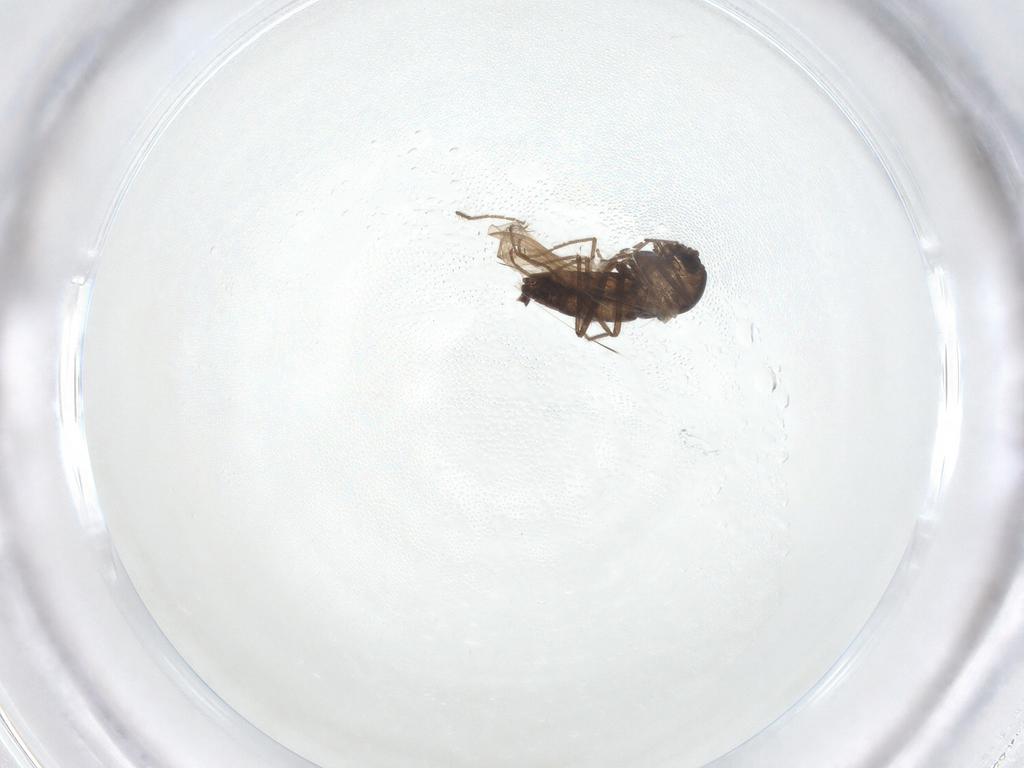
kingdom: Animalia
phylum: Arthropoda
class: Insecta
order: Diptera
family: Chironomidae
